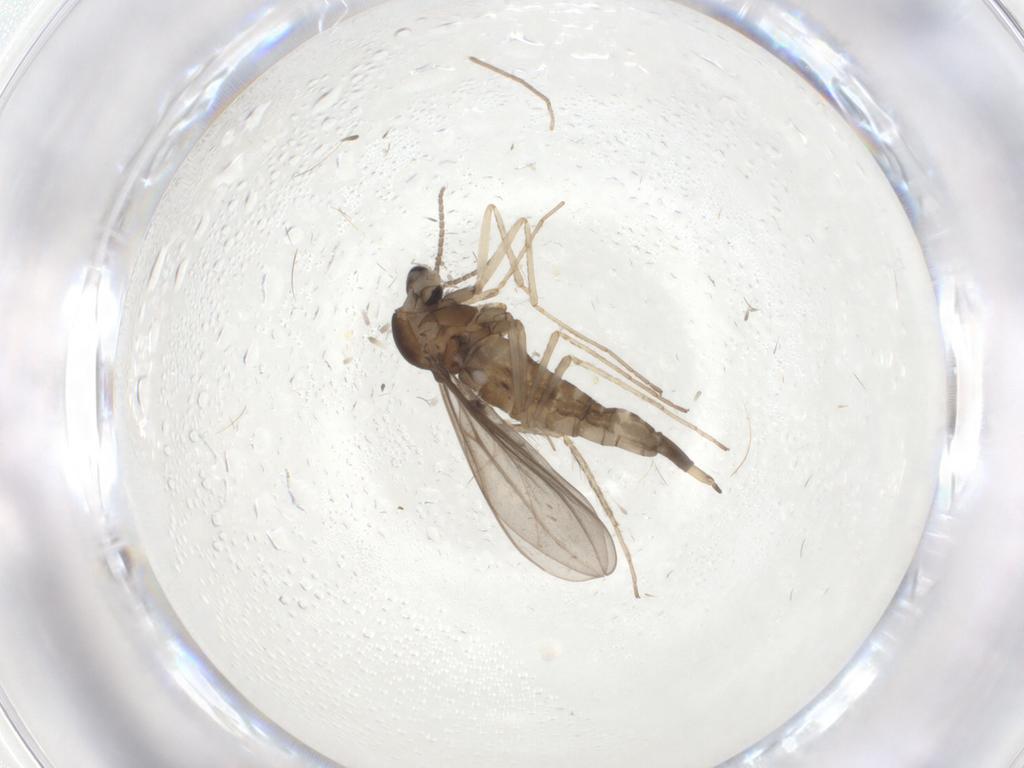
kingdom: Animalia
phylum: Arthropoda
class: Insecta
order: Diptera
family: Cecidomyiidae
